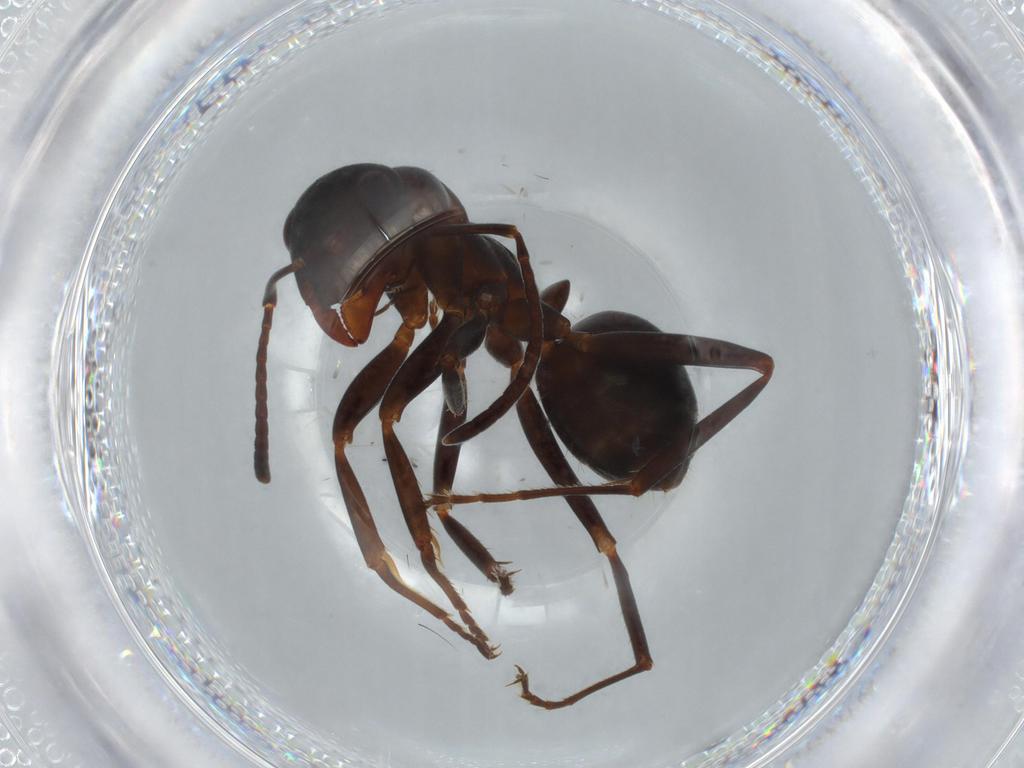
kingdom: Animalia
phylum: Arthropoda
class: Insecta
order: Hymenoptera
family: Formicidae
